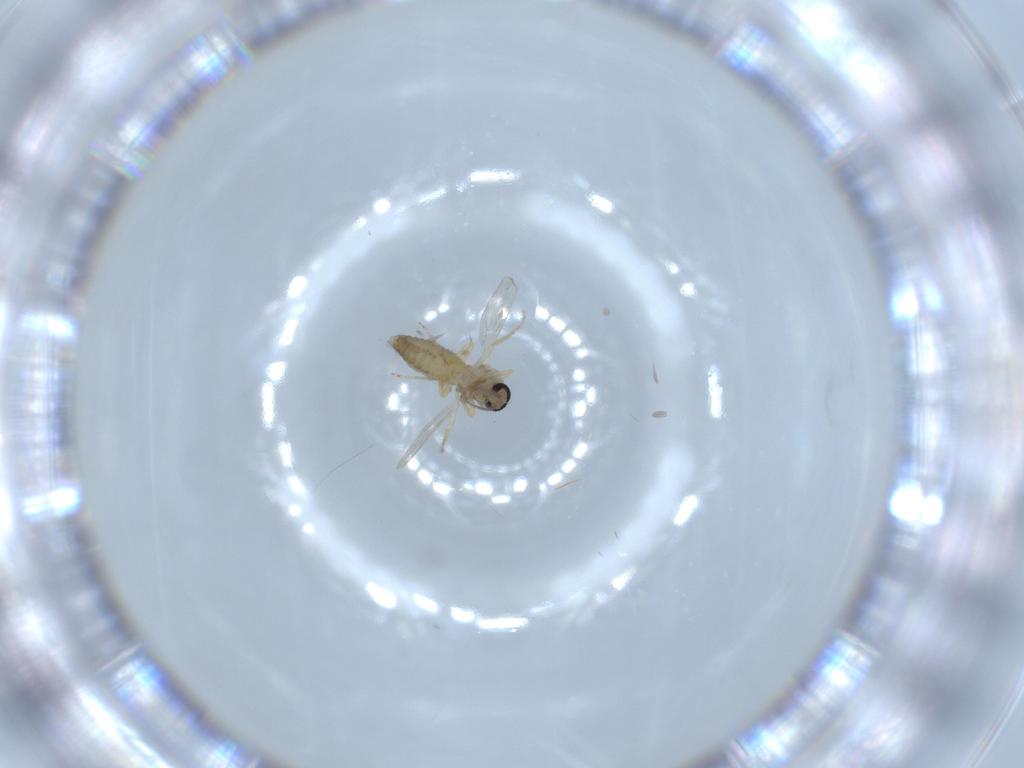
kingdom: Animalia
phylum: Arthropoda
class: Insecta
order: Diptera
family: Ceratopogonidae
